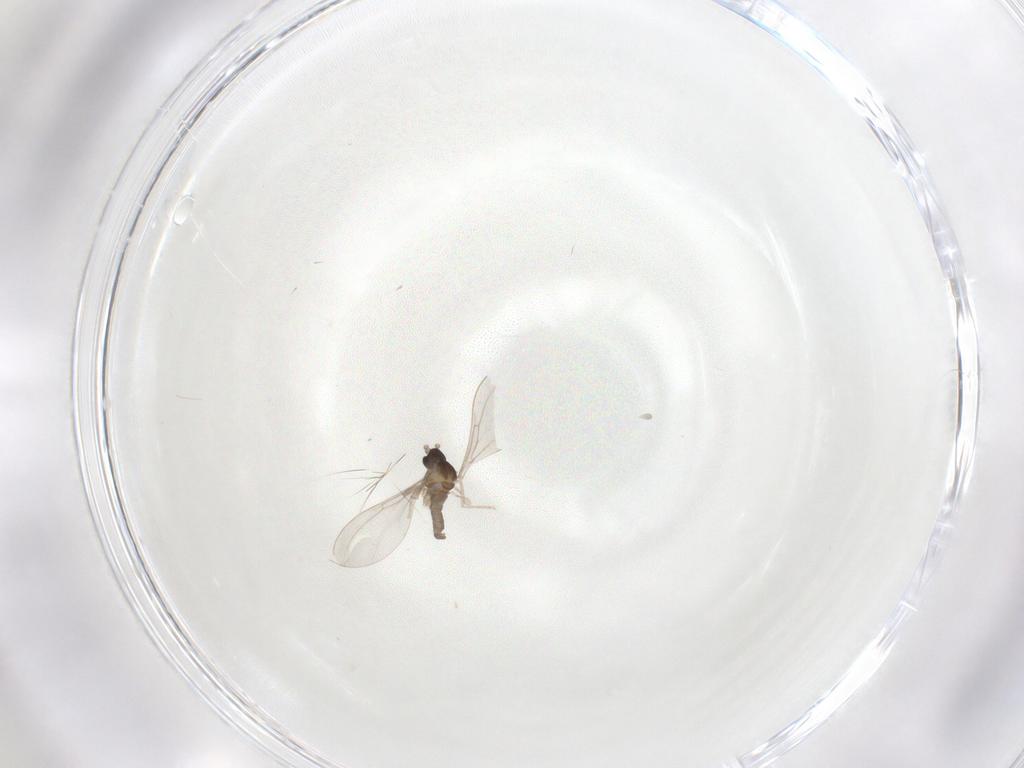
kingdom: Animalia
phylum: Arthropoda
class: Insecta
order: Diptera
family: Cecidomyiidae
